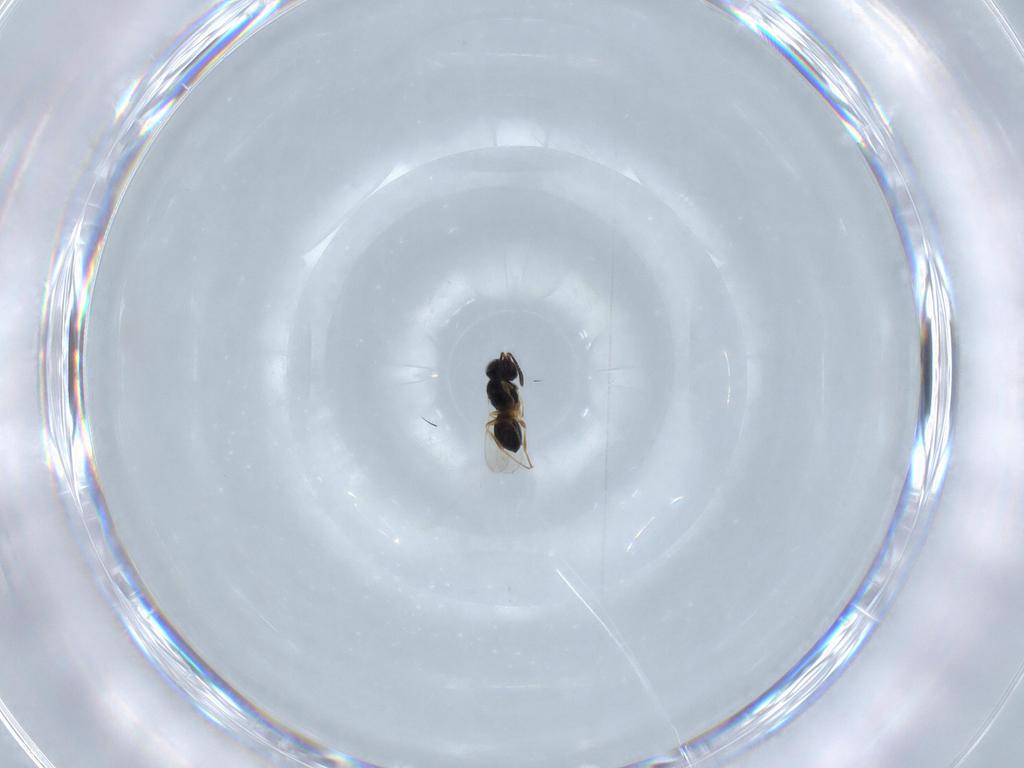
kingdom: Animalia
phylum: Arthropoda
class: Insecta
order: Hymenoptera
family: Scelionidae
